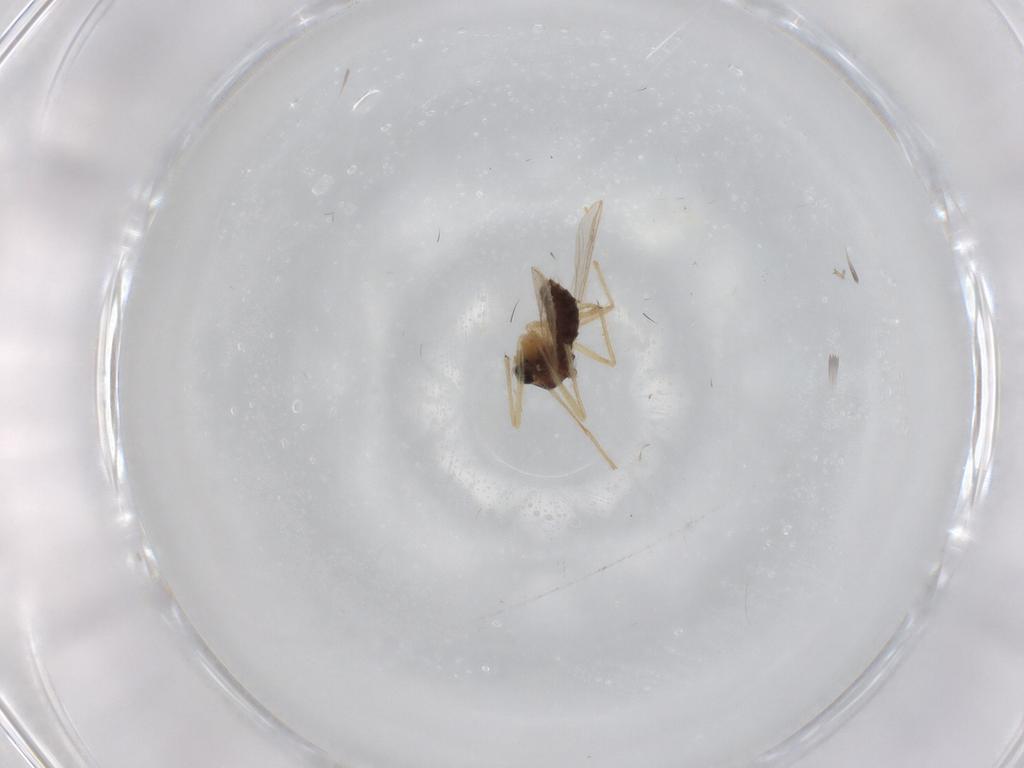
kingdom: Animalia
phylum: Arthropoda
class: Insecta
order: Diptera
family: Chironomidae
